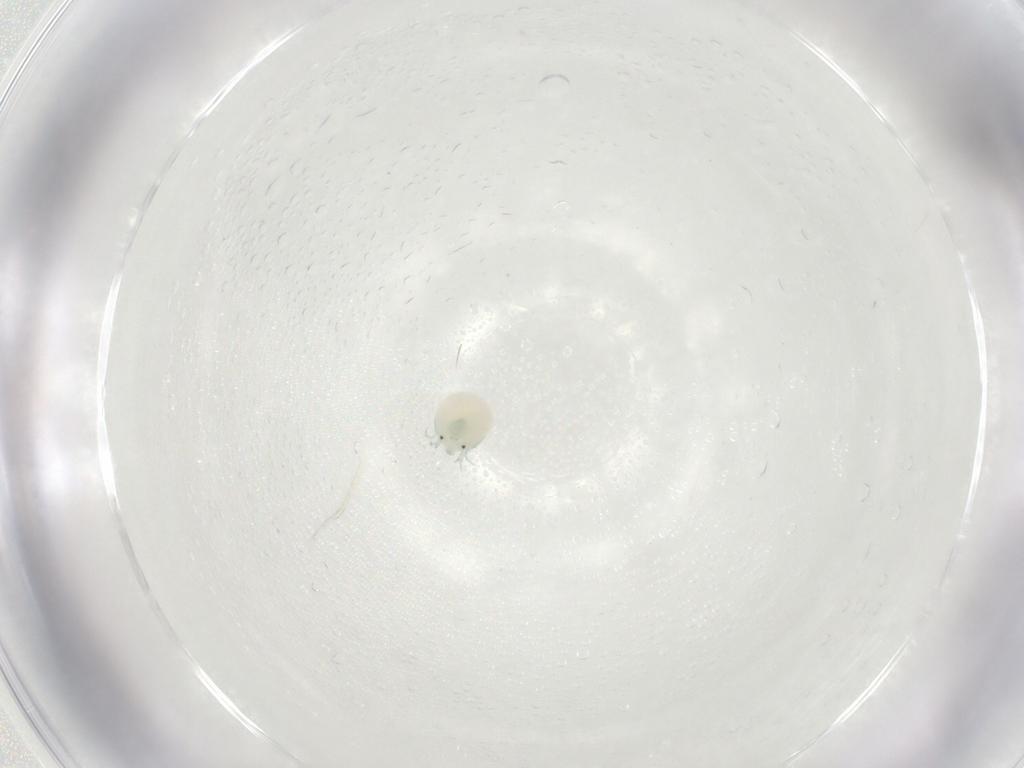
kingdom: Animalia
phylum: Arthropoda
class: Arachnida
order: Trombidiformes
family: Arrenuridae
